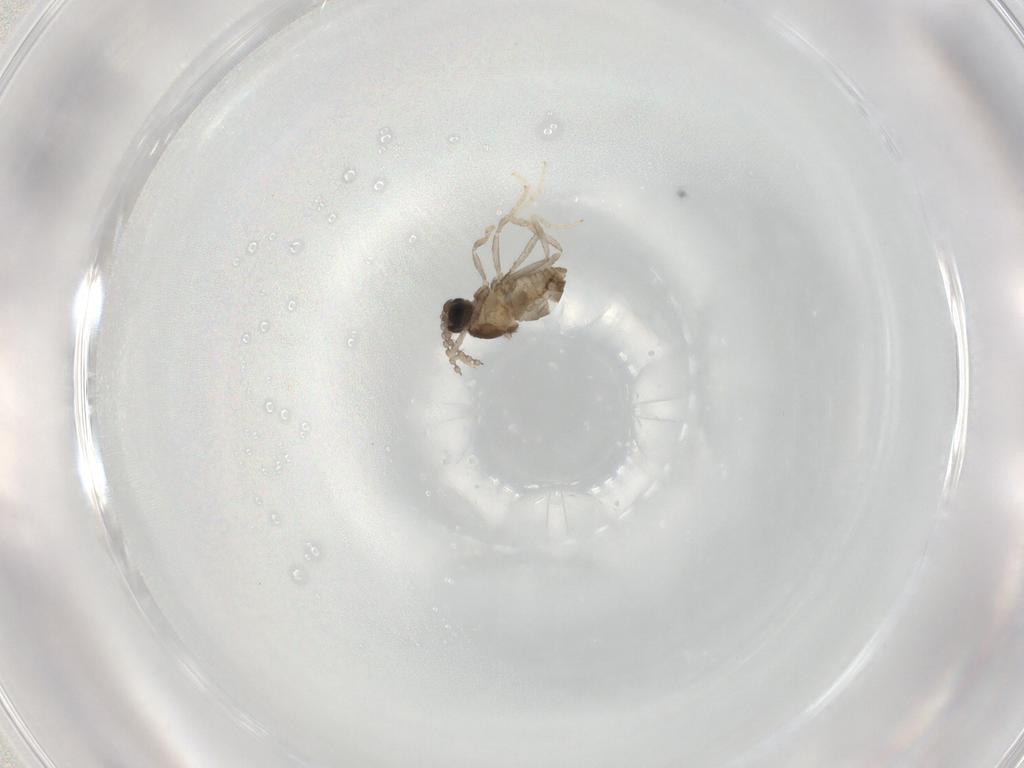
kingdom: Animalia
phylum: Arthropoda
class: Insecta
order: Diptera
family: Cecidomyiidae
